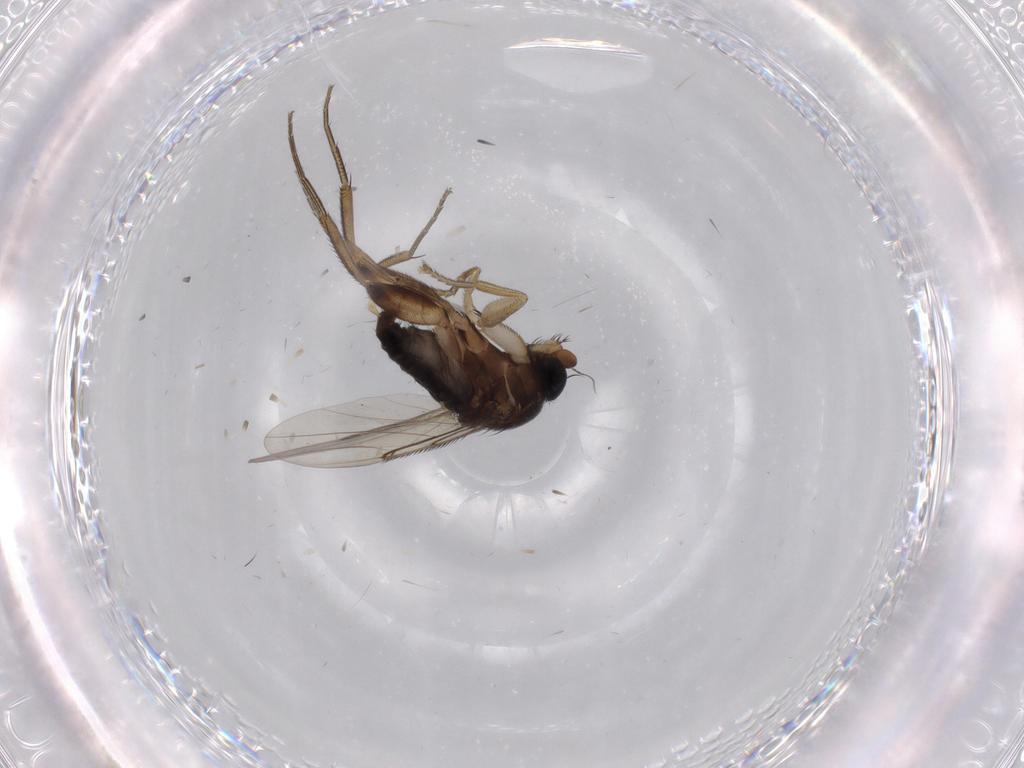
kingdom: Animalia
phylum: Arthropoda
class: Insecta
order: Diptera
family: Phoridae
